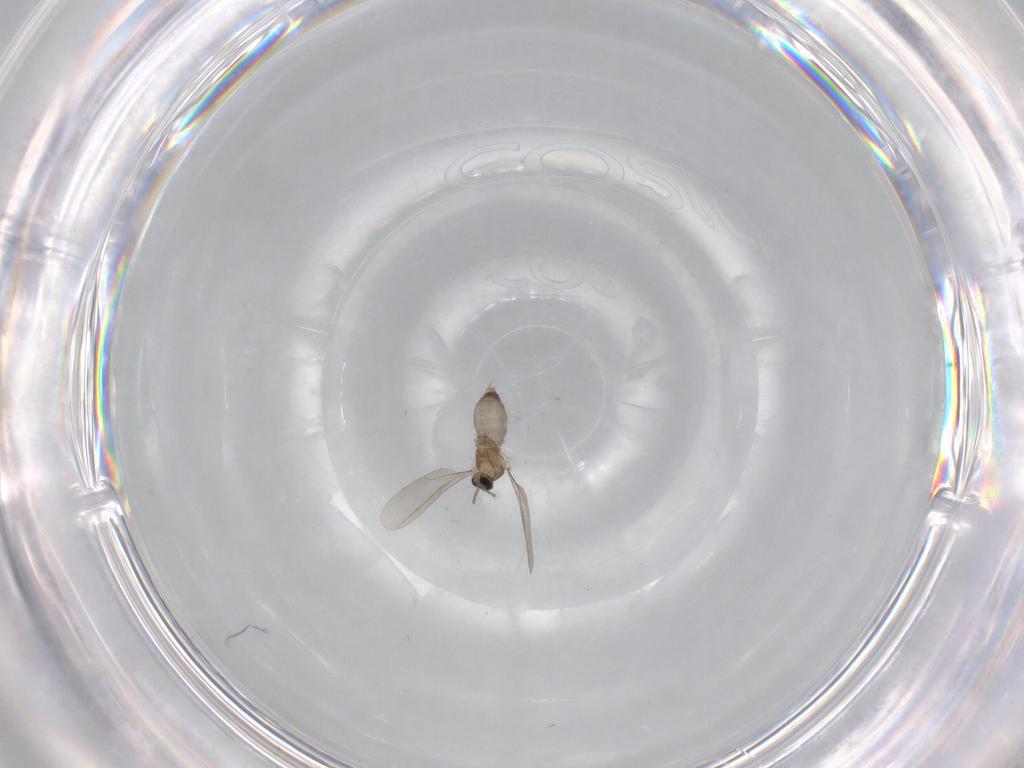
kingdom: Animalia
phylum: Arthropoda
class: Insecta
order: Diptera
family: Cecidomyiidae
